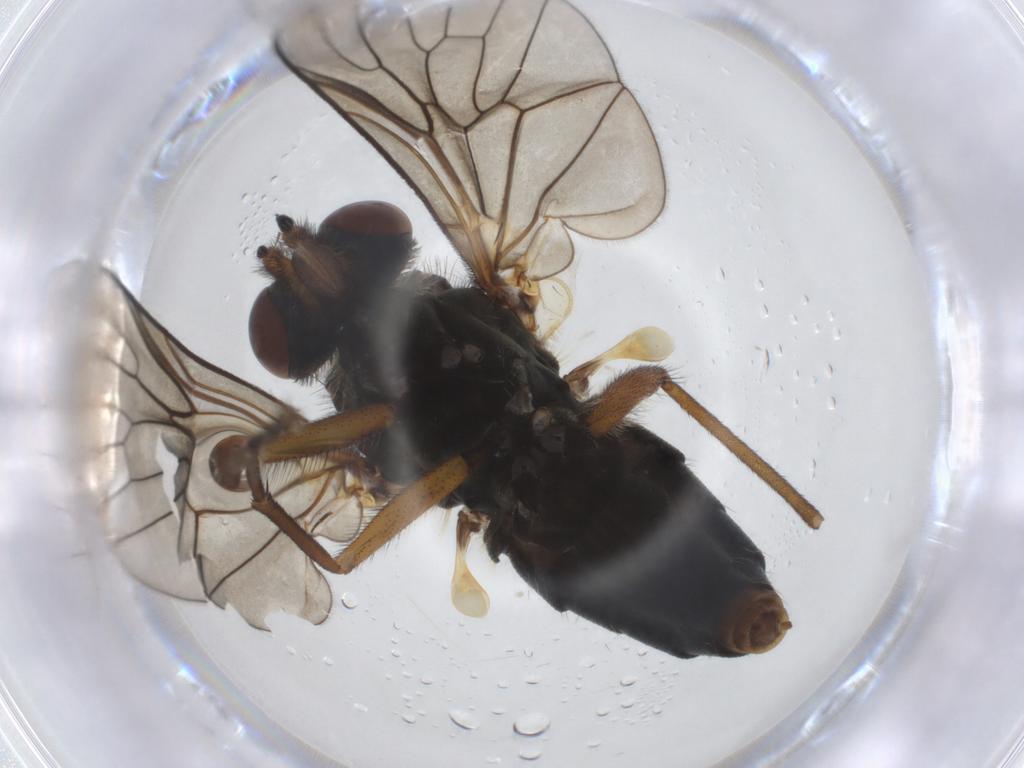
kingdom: Animalia
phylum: Arthropoda
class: Insecta
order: Diptera
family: Rhagionidae
